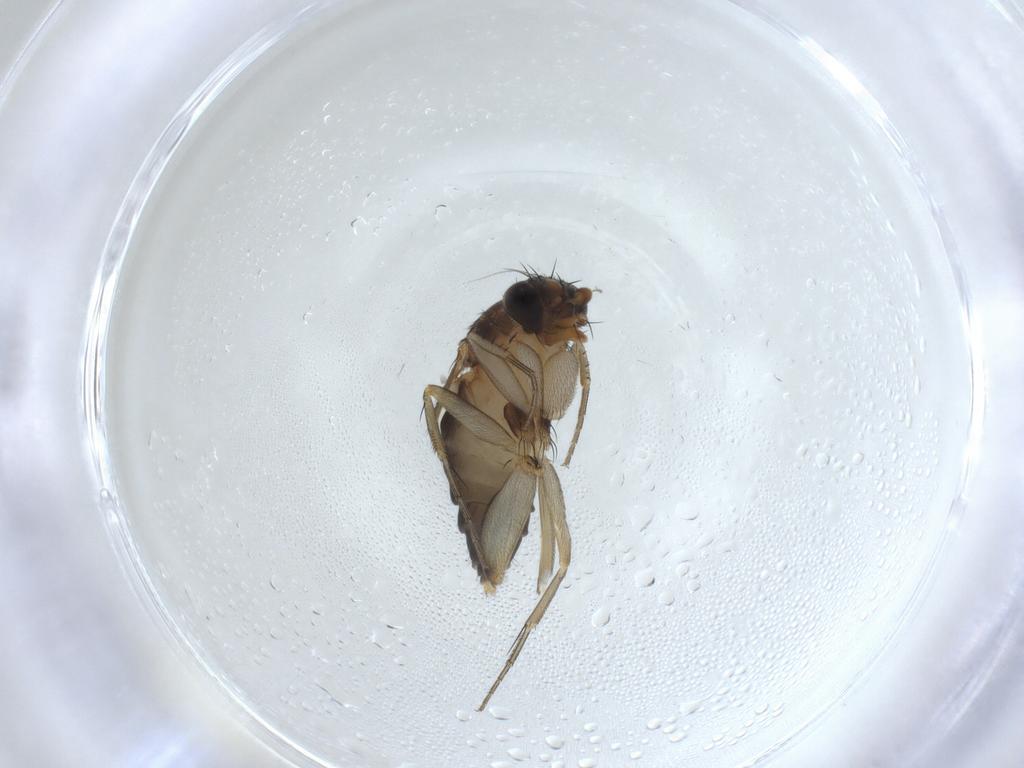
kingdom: Animalia
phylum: Arthropoda
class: Insecta
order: Diptera
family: Phoridae
